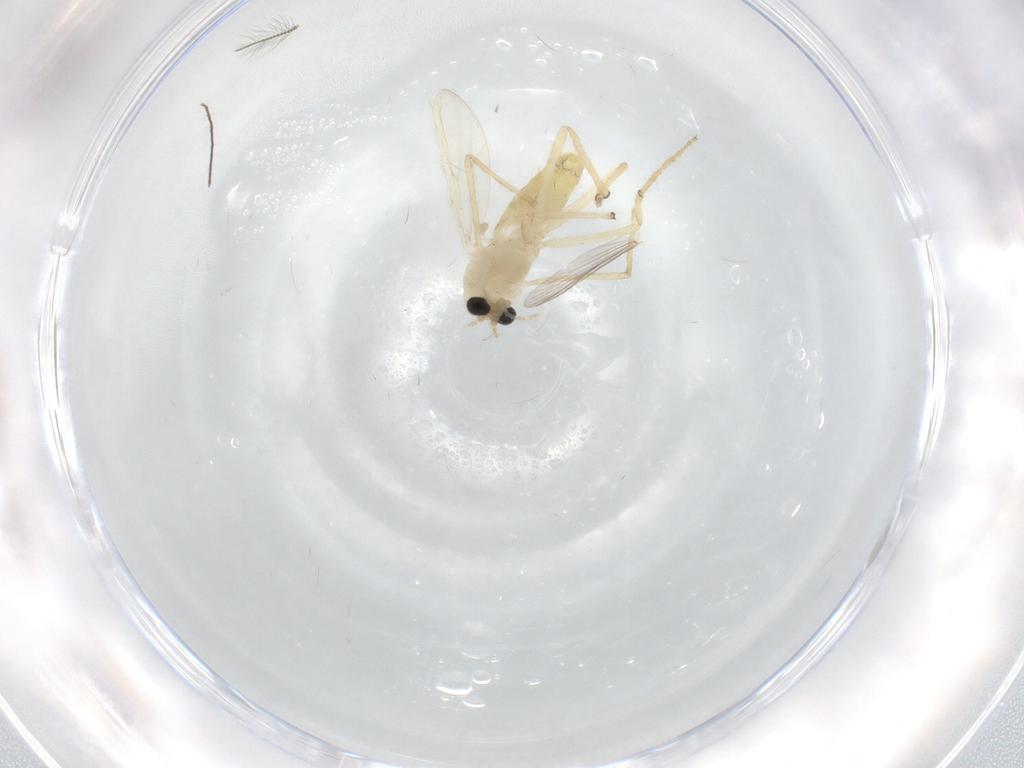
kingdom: Animalia
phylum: Arthropoda
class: Insecta
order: Diptera
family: Chironomidae
